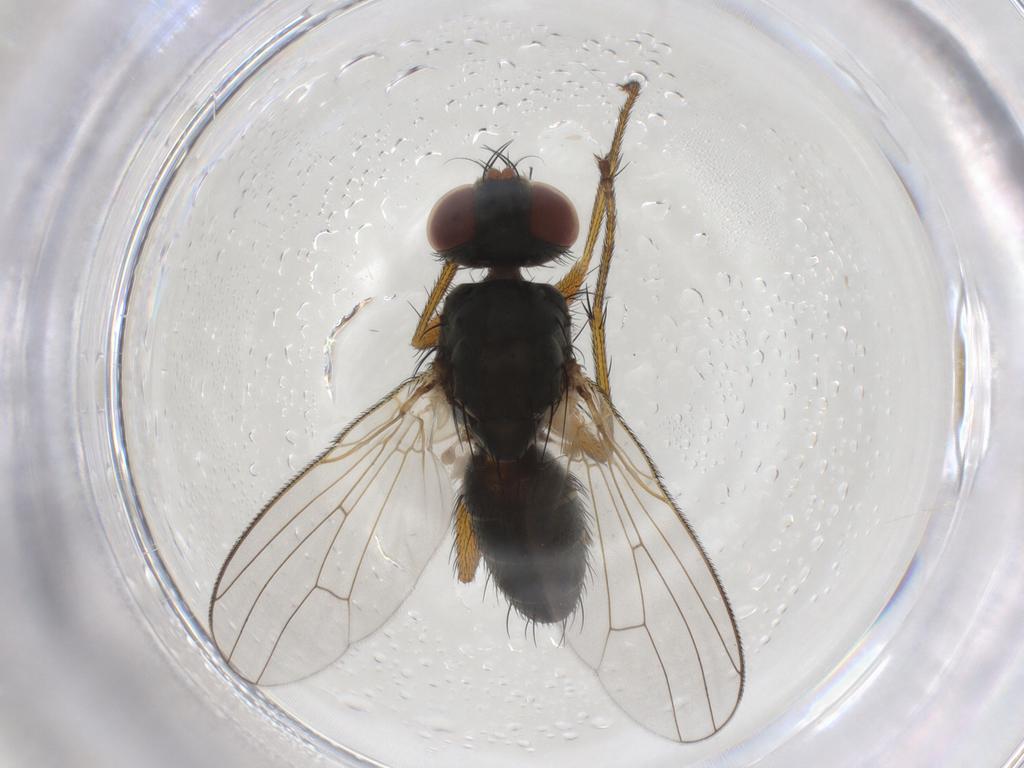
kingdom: Animalia
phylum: Arthropoda
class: Insecta
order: Diptera
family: Muscidae
